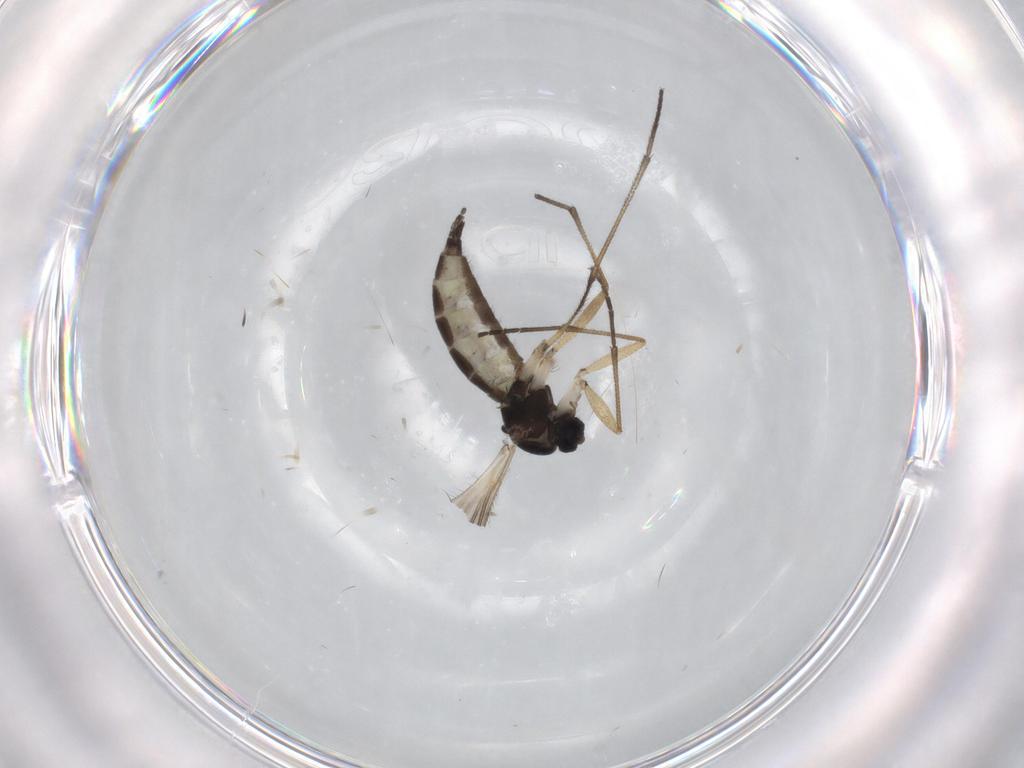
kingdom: Animalia
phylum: Arthropoda
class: Insecta
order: Diptera
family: Sciaridae
